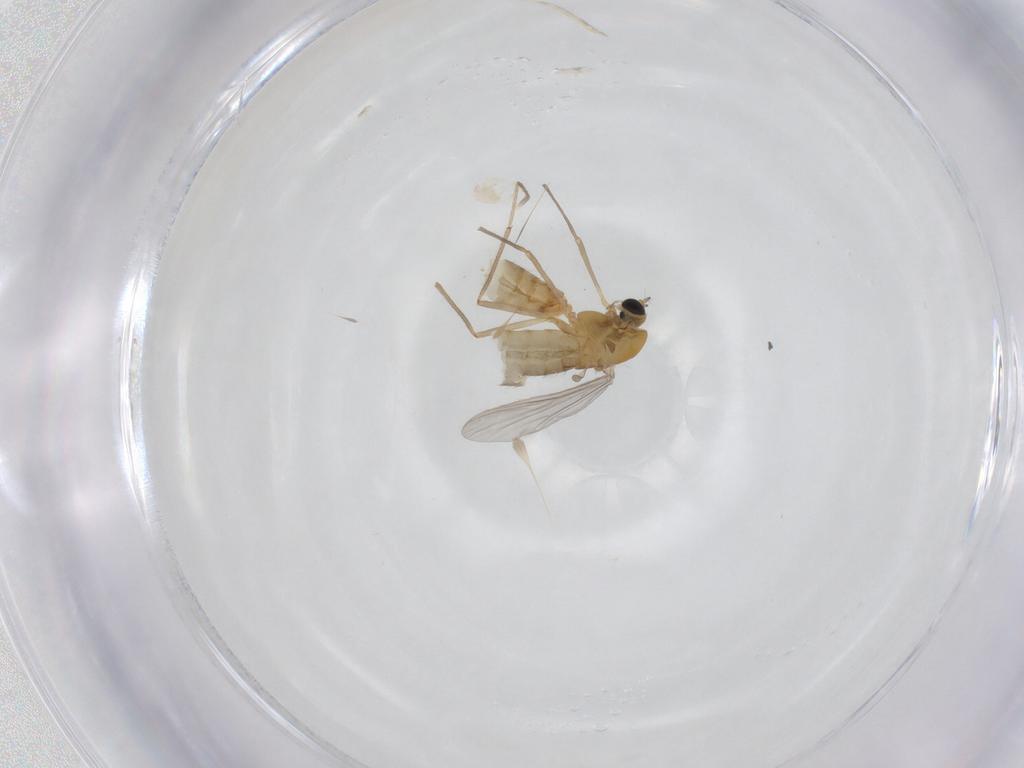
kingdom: Animalia
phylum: Arthropoda
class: Insecta
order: Diptera
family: Chironomidae
